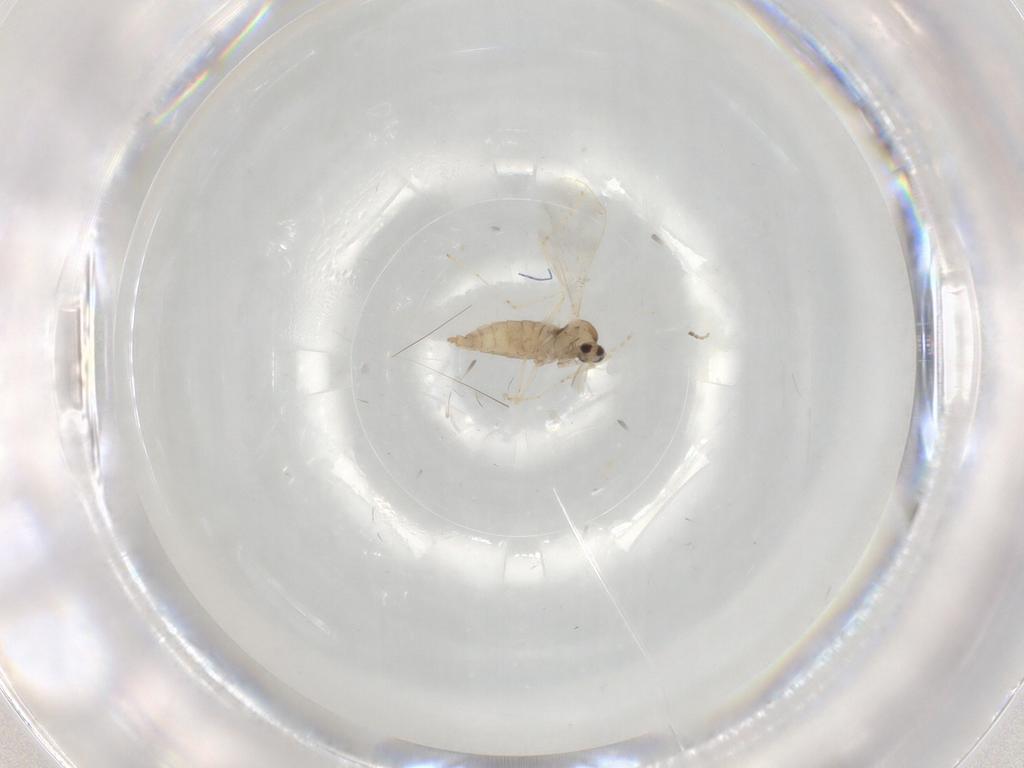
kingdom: Animalia
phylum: Arthropoda
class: Insecta
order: Diptera
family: Cecidomyiidae
